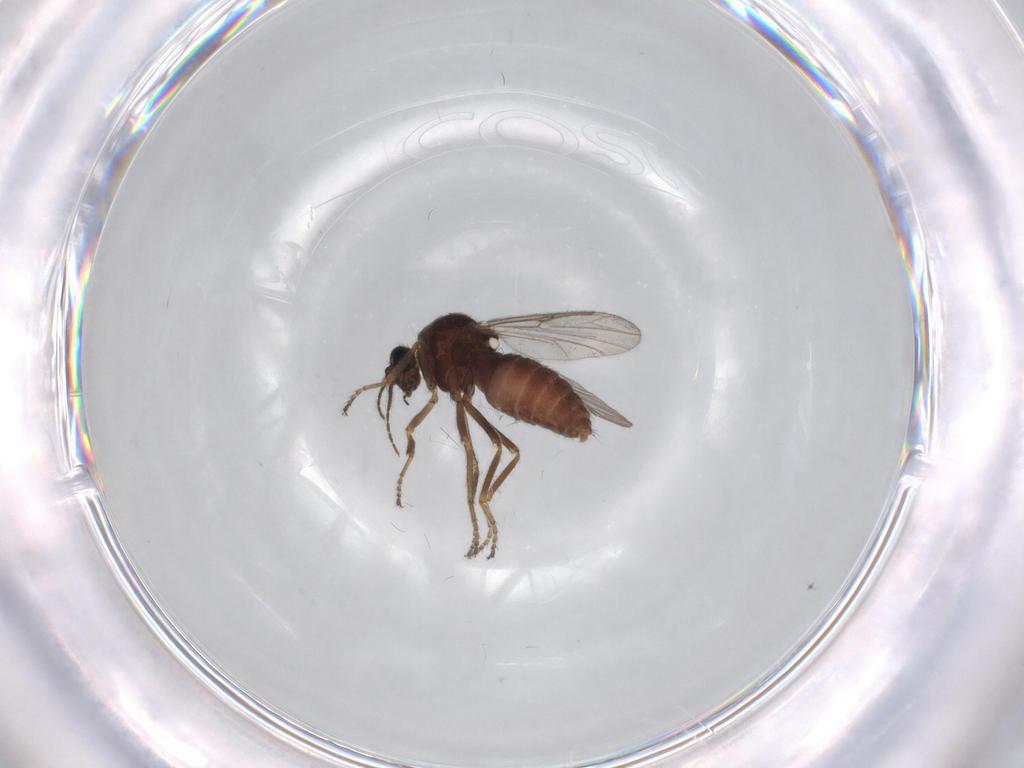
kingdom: Animalia
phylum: Arthropoda
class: Insecta
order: Diptera
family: Ceratopogonidae
